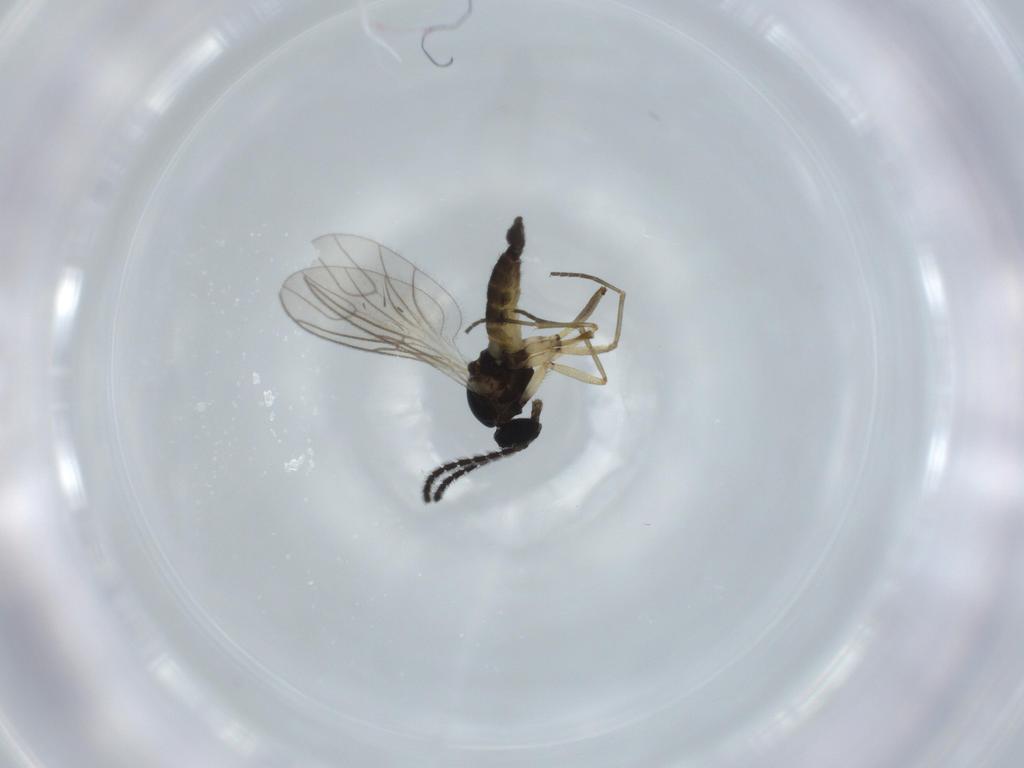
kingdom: Animalia
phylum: Arthropoda
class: Insecta
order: Diptera
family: Sciaridae
